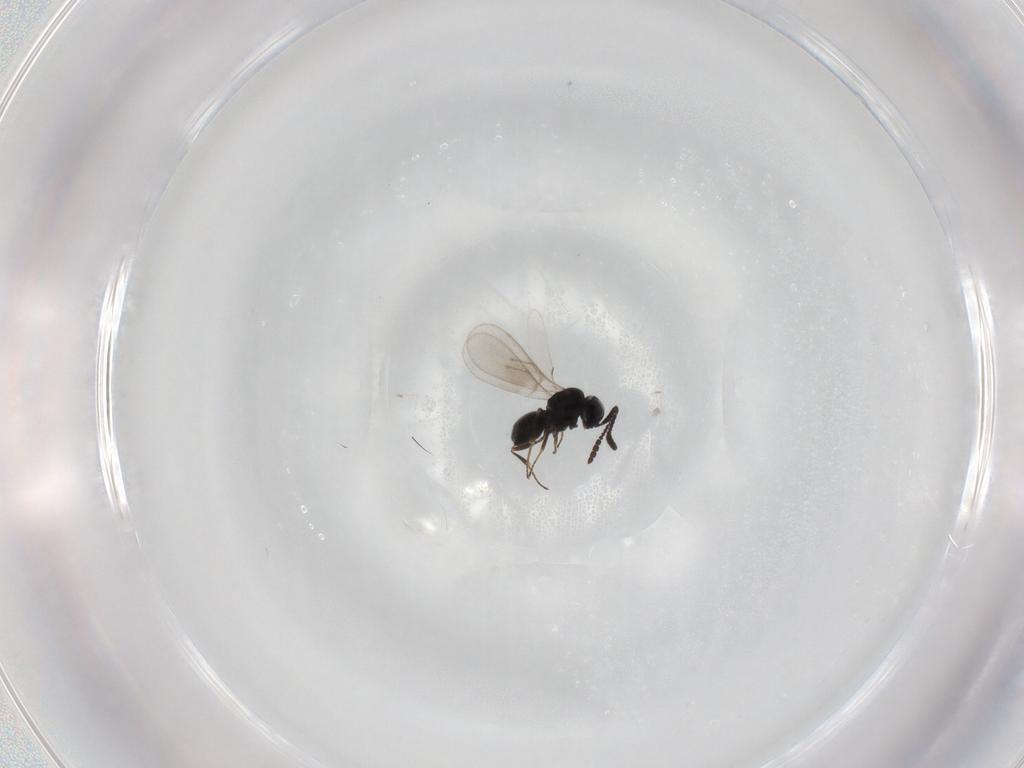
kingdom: Animalia
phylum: Arthropoda
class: Insecta
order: Hymenoptera
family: Scelionidae
